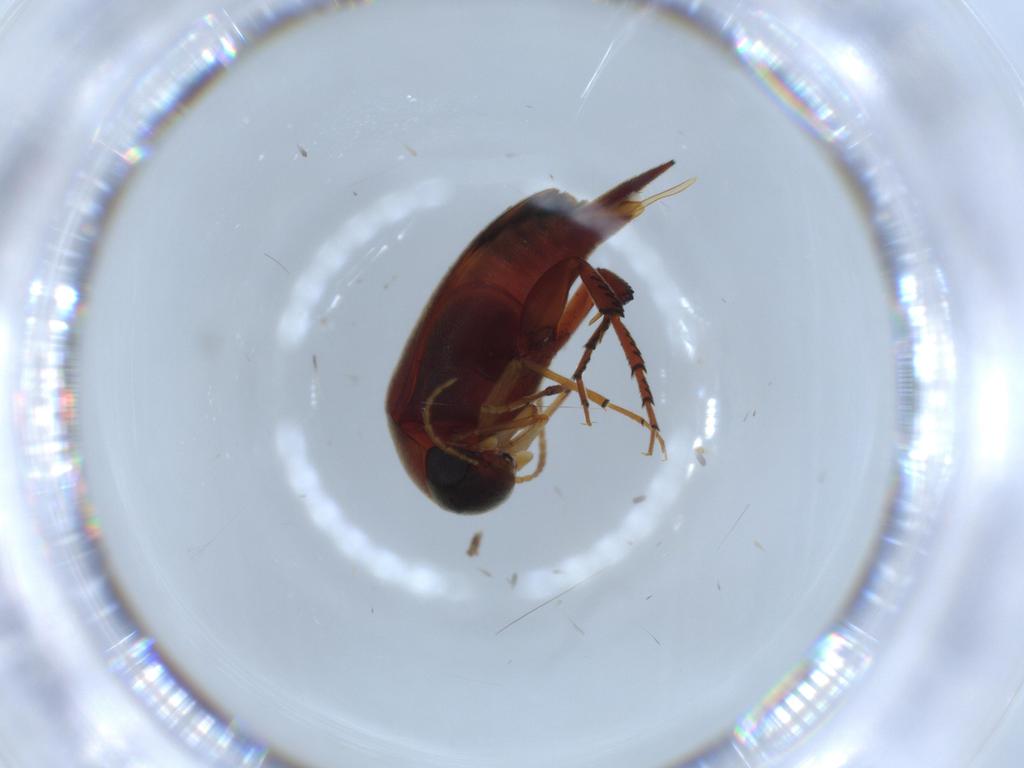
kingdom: Animalia
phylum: Arthropoda
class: Insecta
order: Coleoptera
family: Mordellidae
